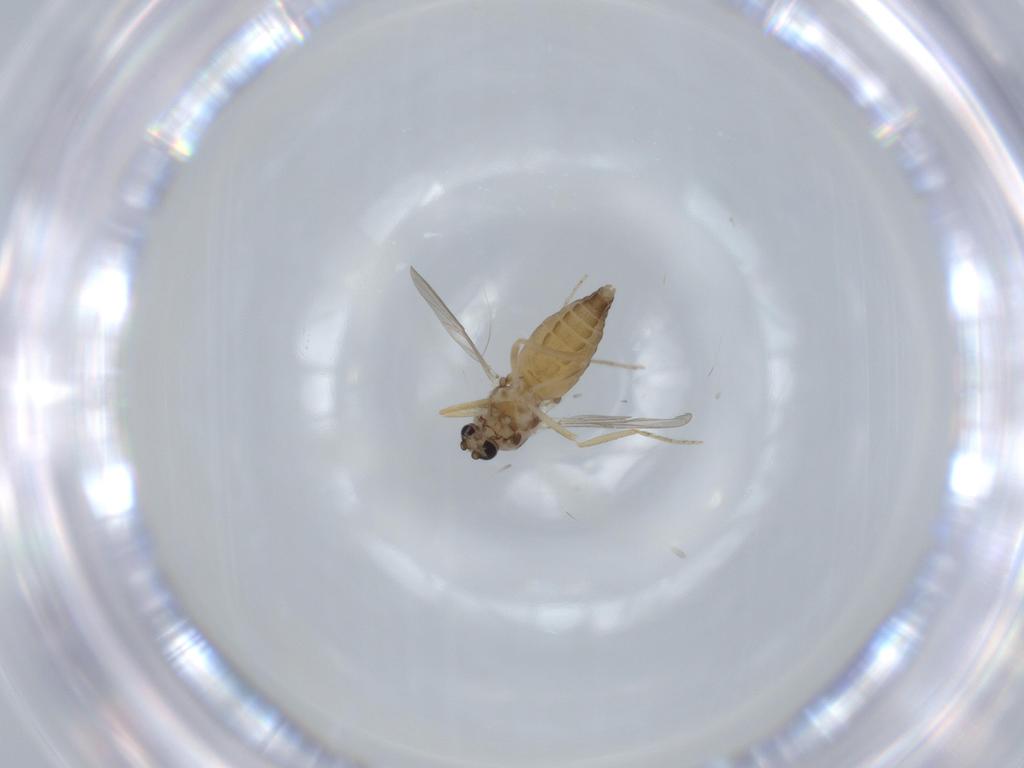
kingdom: Animalia
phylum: Arthropoda
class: Insecta
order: Diptera
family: Ceratopogonidae
